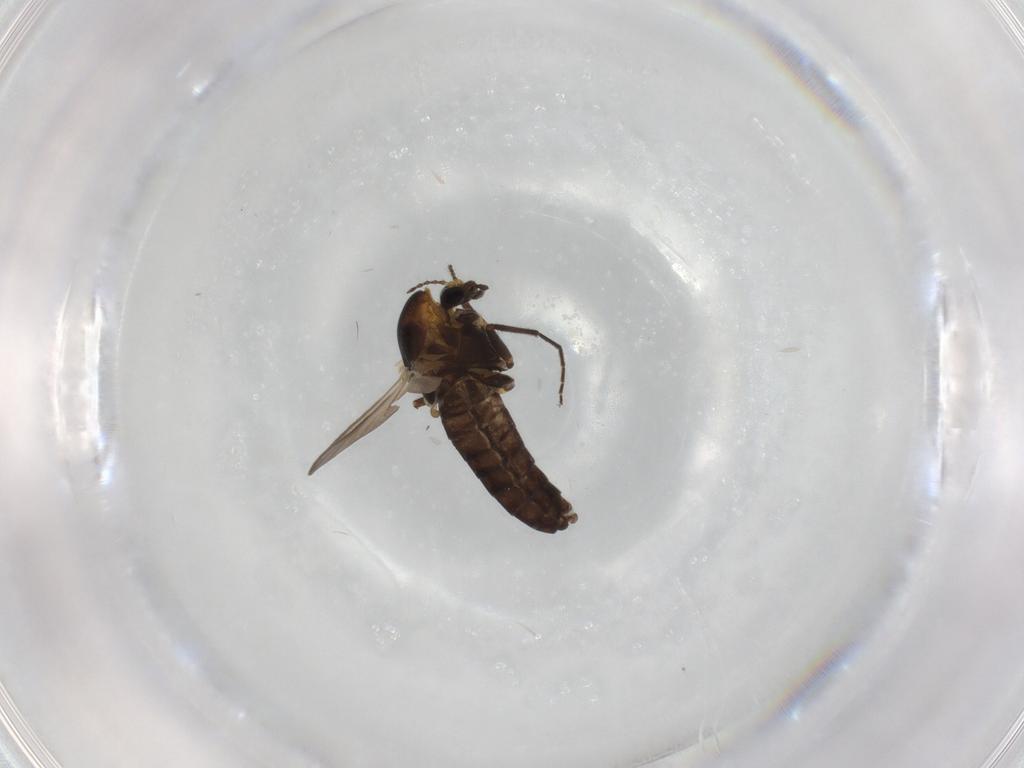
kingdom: Animalia
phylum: Arthropoda
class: Insecta
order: Diptera
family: Chironomidae
